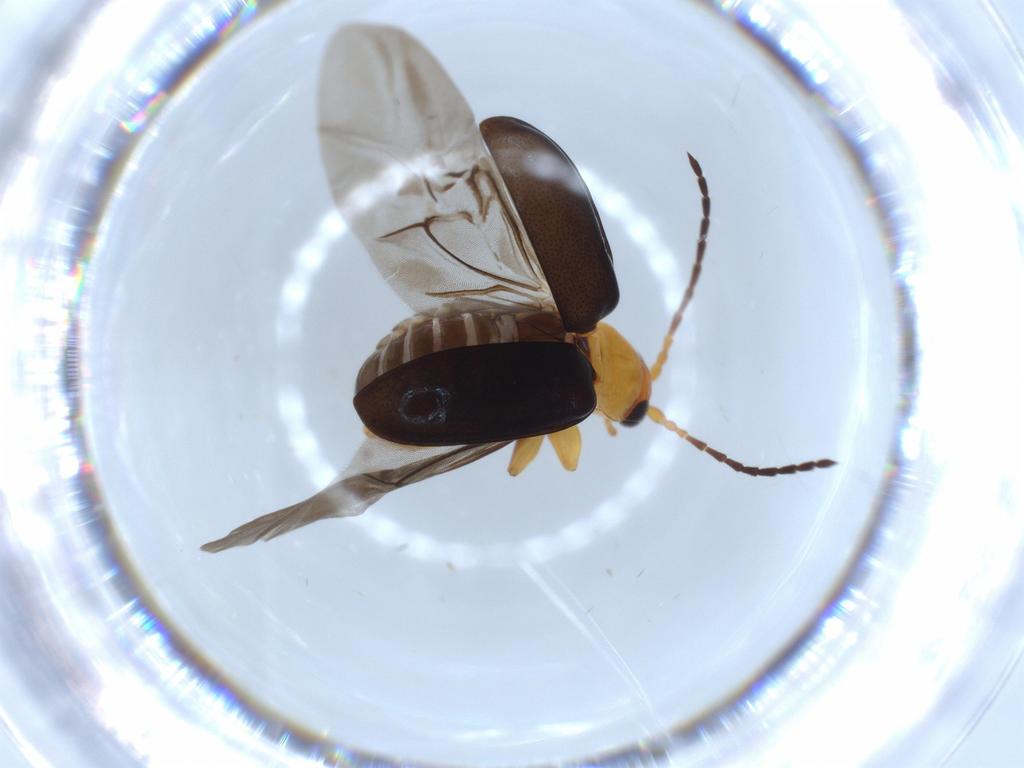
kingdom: Animalia
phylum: Arthropoda
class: Insecta
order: Coleoptera
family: Chrysomelidae
